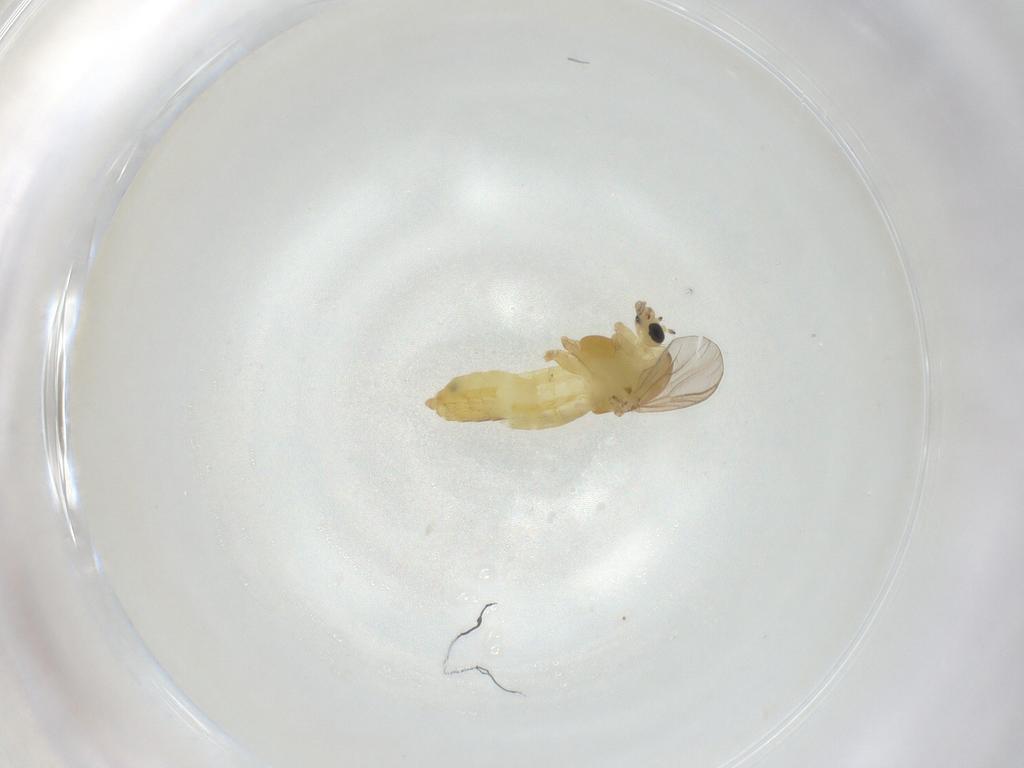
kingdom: Animalia
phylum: Arthropoda
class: Insecta
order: Diptera
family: Chironomidae
